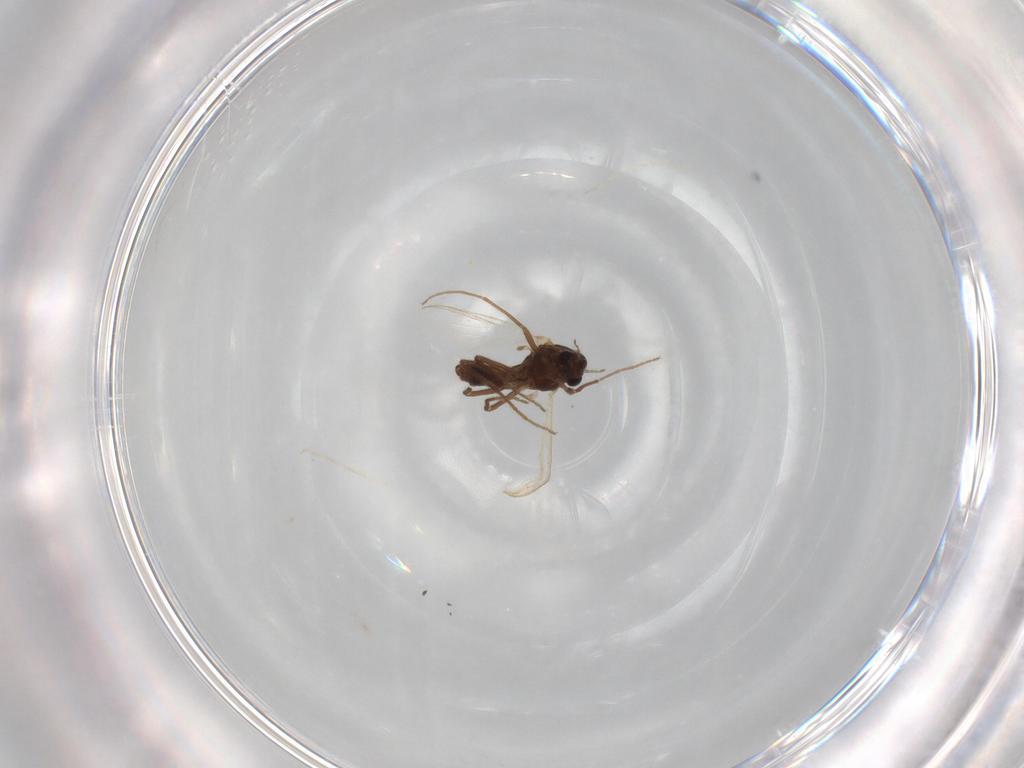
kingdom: Animalia
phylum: Arthropoda
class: Insecta
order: Diptera
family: Chironomidae
